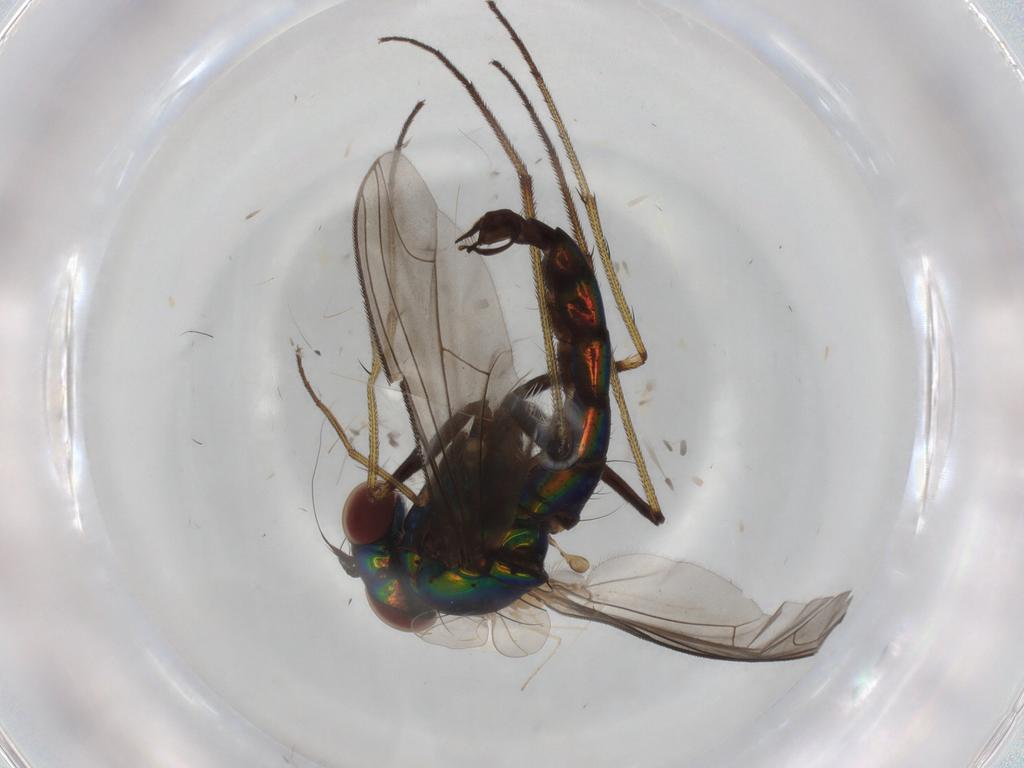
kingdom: Animalia
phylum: Arthropoda
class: Insecta
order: Diptera
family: Dolichopodidae
